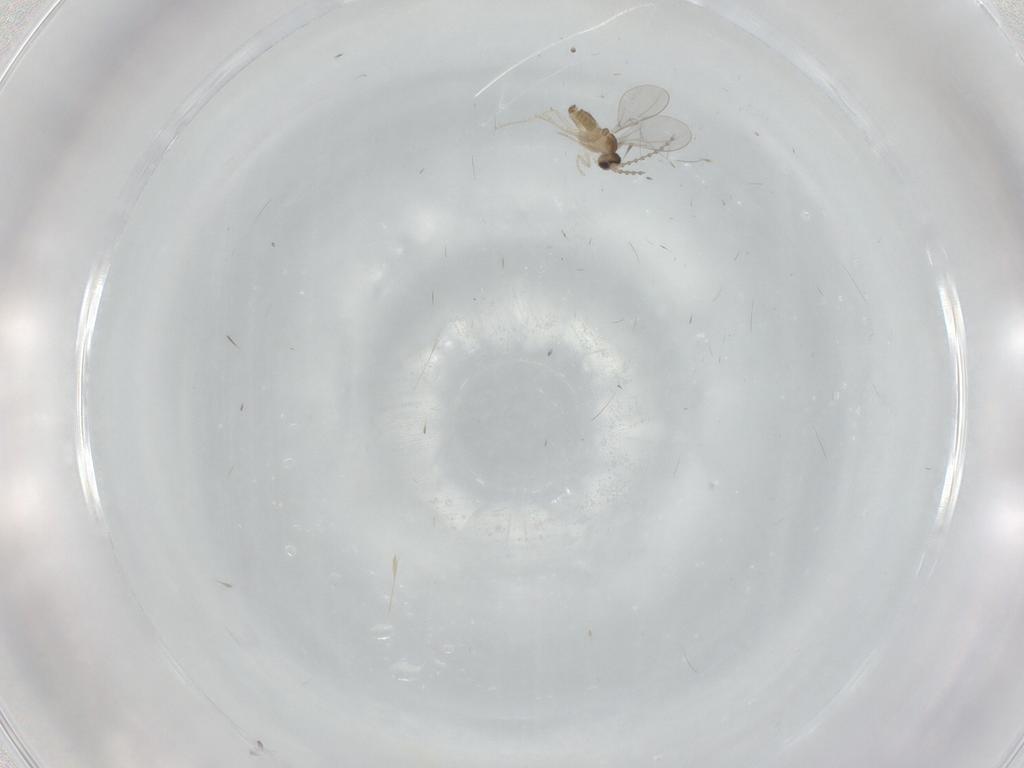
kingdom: Animalia
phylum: Arthropoda
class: Insecta
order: Diptera
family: Cecidomyiidae
